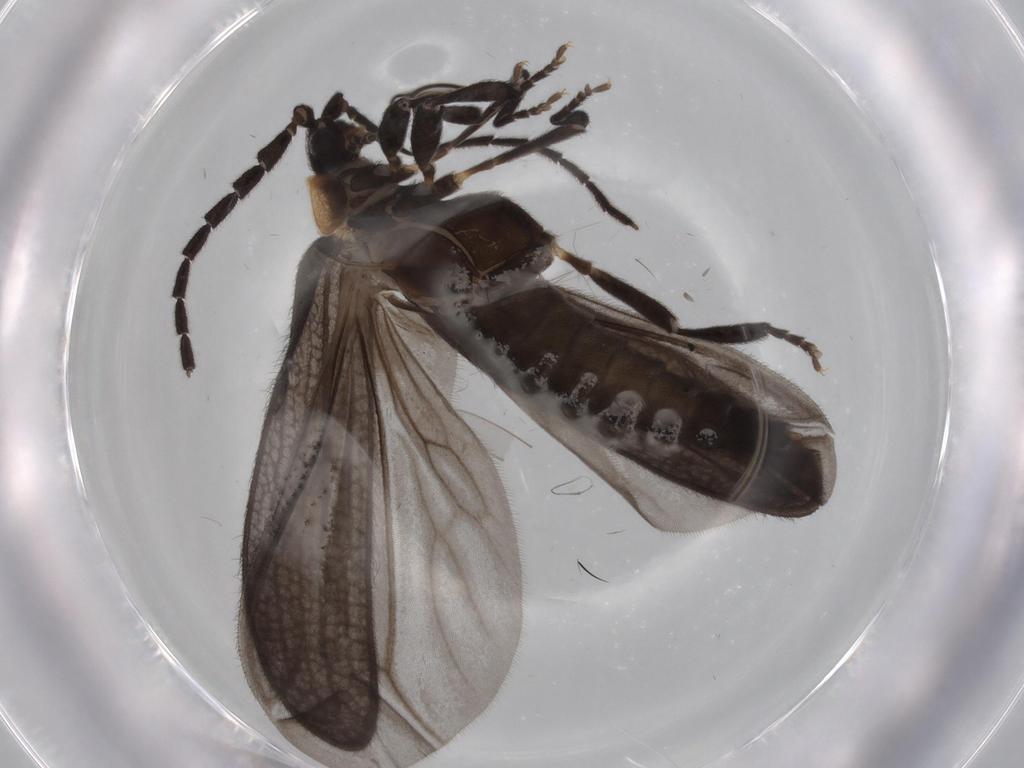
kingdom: Animalia
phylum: Arthropoda
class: Insecta
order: Coleoptera
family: Lycidae
